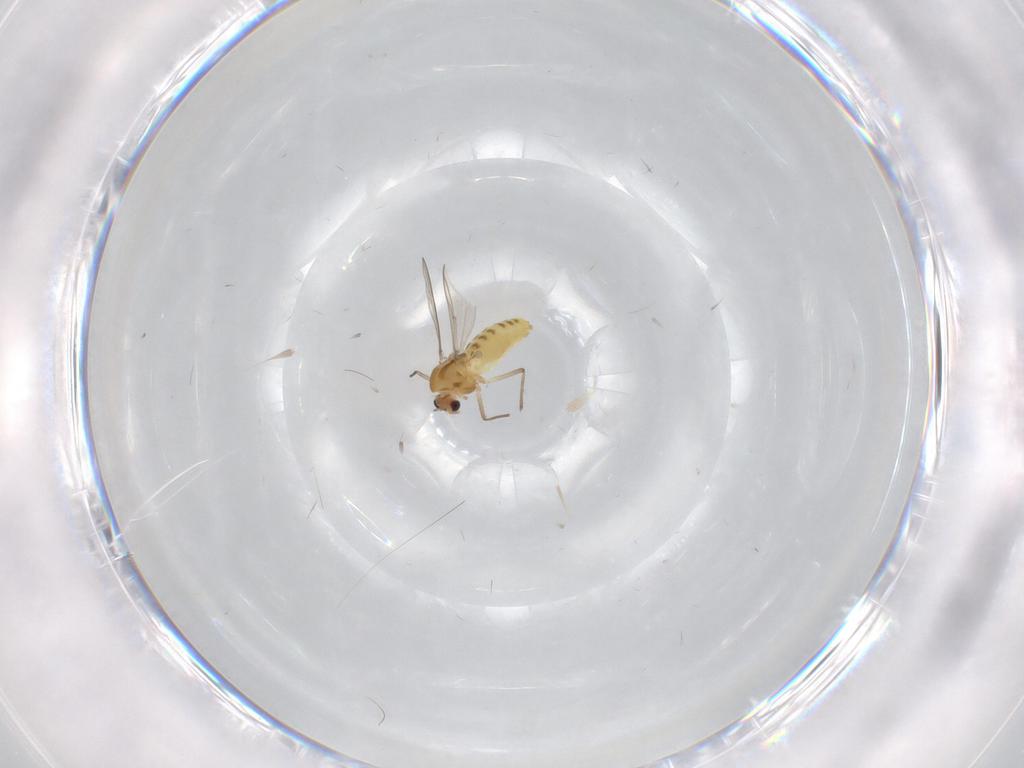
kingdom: Animalia
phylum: Arthropoda
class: Insecta
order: Diptera
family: Chironomidae
